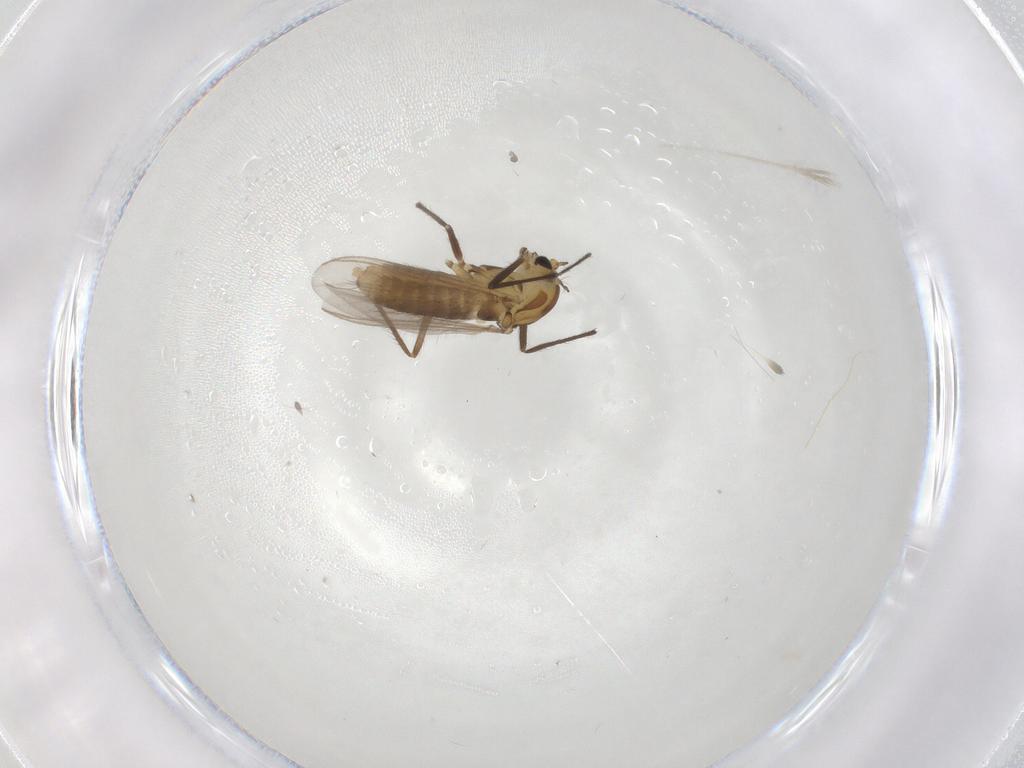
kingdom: Animalia
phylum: Arthropoda
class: Insecta
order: Diptera
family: Chironomidae
